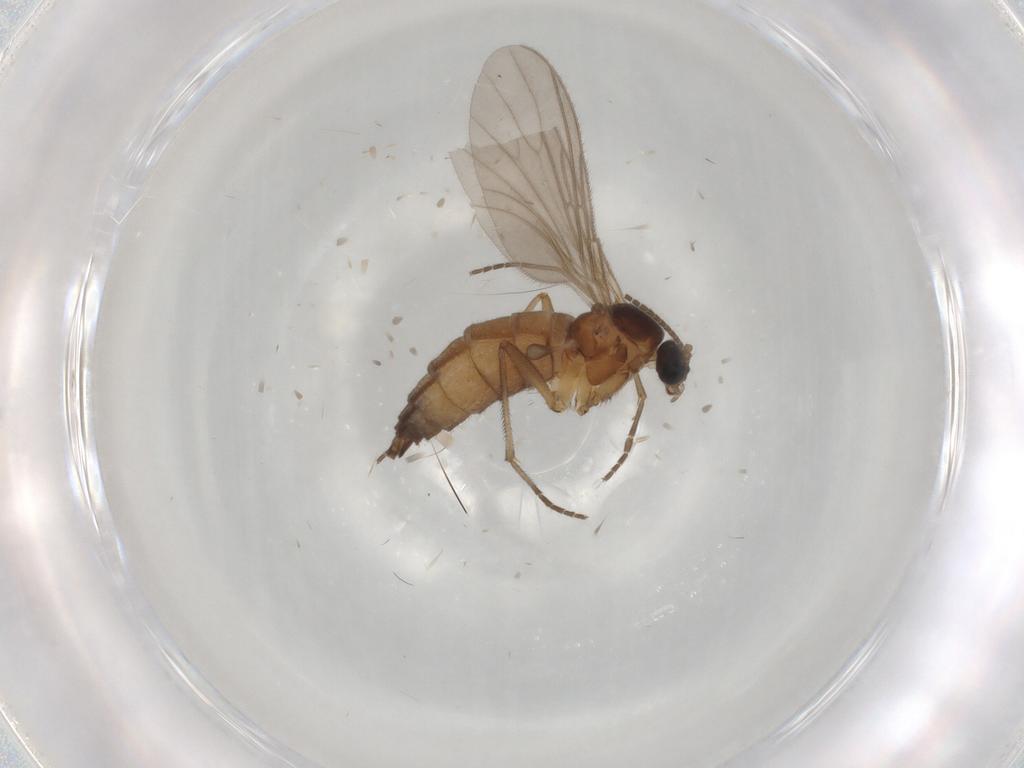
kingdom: Animalia
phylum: Arthropoda
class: Insecta
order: Diptera
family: Sciaridae
